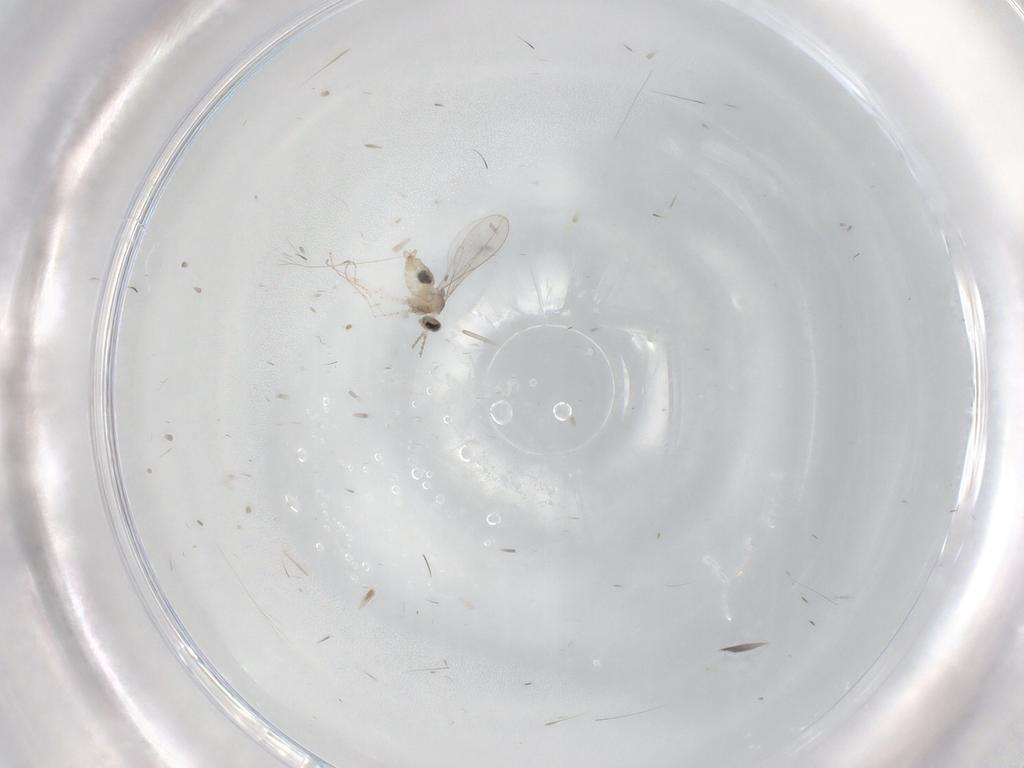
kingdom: Animalia
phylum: Arthropoda
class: Insecta
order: Diptera
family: Cecidomyiidae
